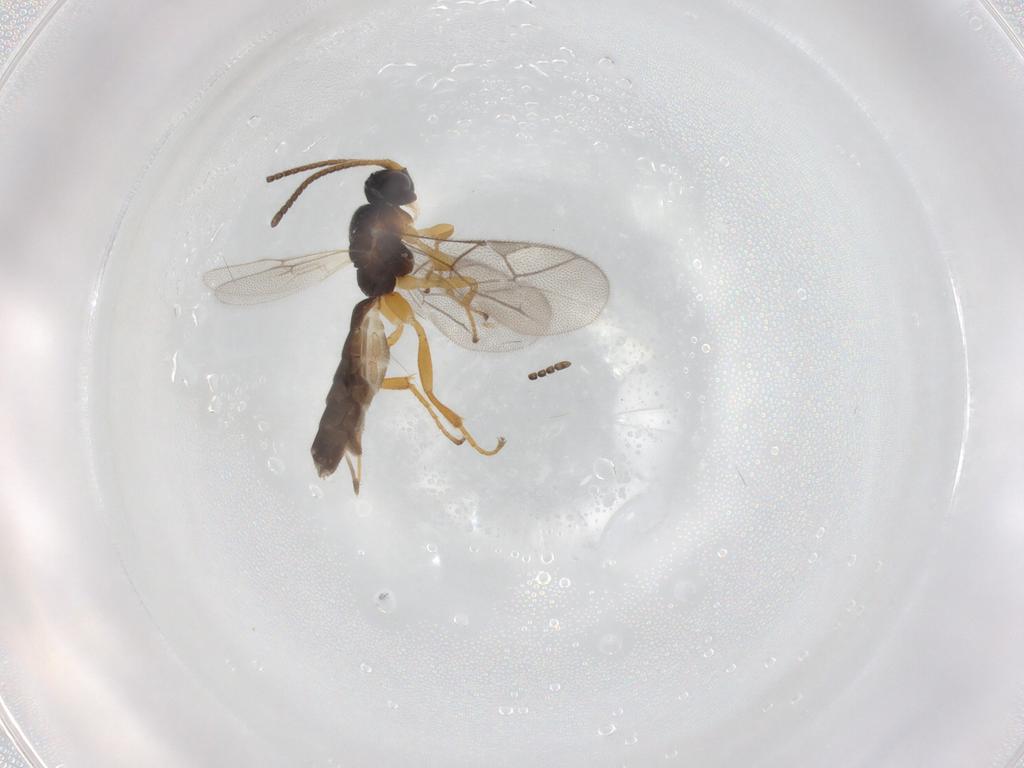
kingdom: Animalia
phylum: Arthropoda
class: Insecta
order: Hymenoptera
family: Ichneumonidae
